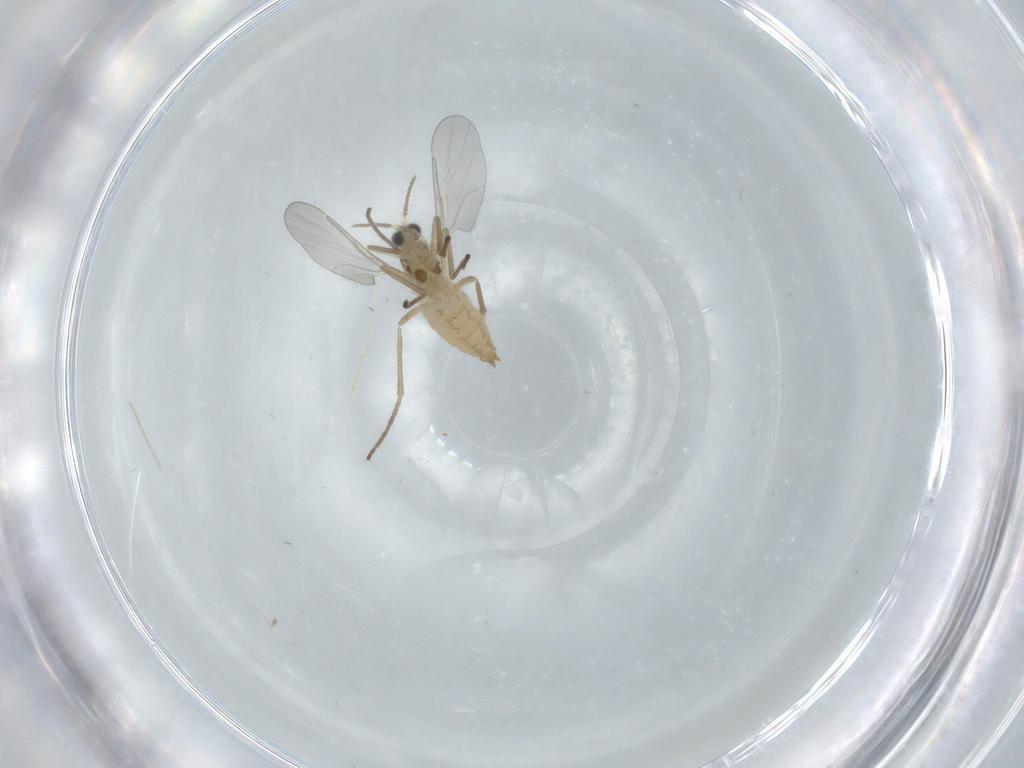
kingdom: Animalia
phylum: Arthropoda
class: Insecta
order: Diptera
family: Cecidomyiidae
